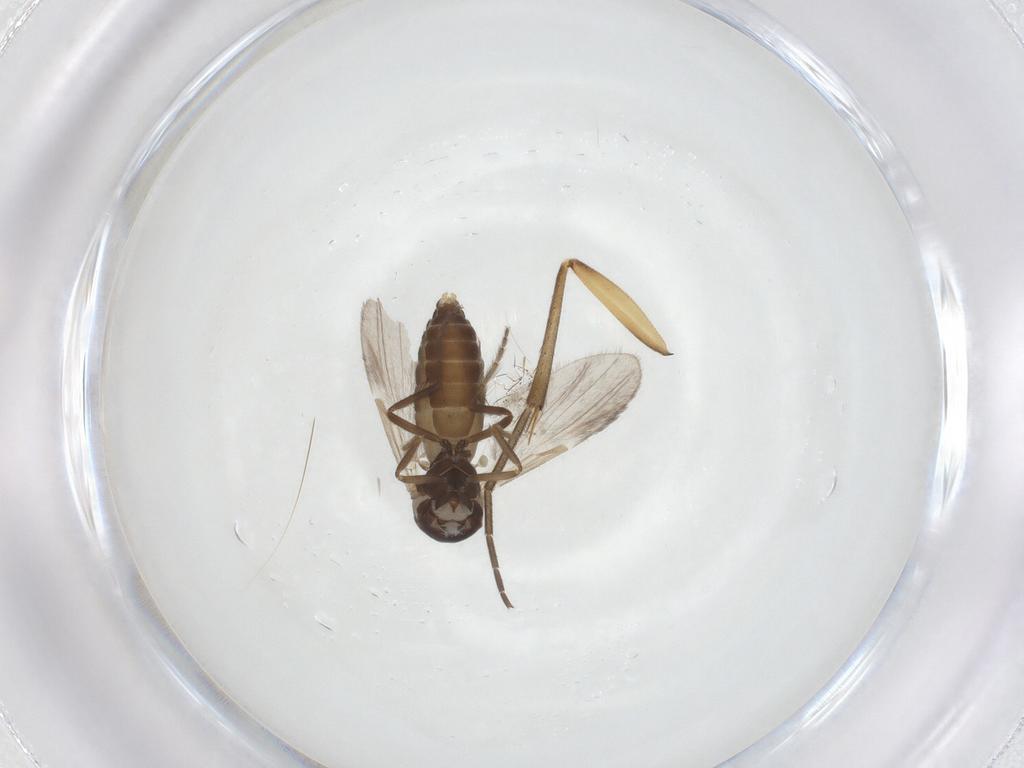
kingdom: Animalia
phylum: Arthropoda
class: Insecta
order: Diptera
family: Ceratopogonidae
